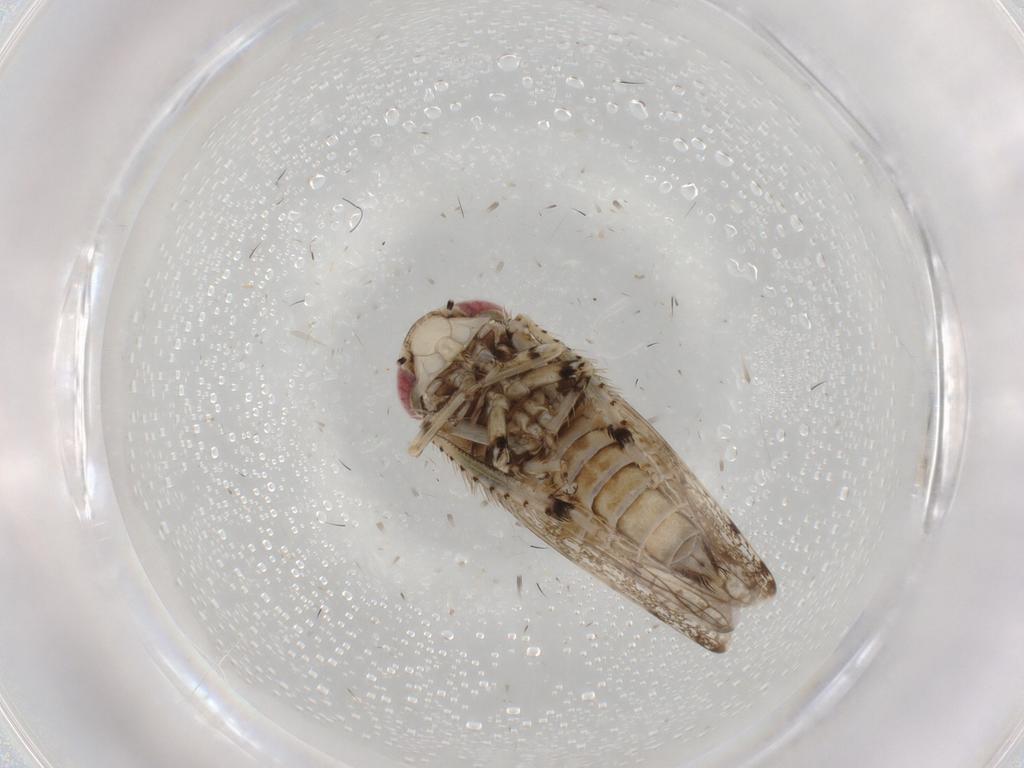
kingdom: Animalia
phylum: Arthropoda
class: Insecta
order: Hemiptera
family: Cicadellidae
